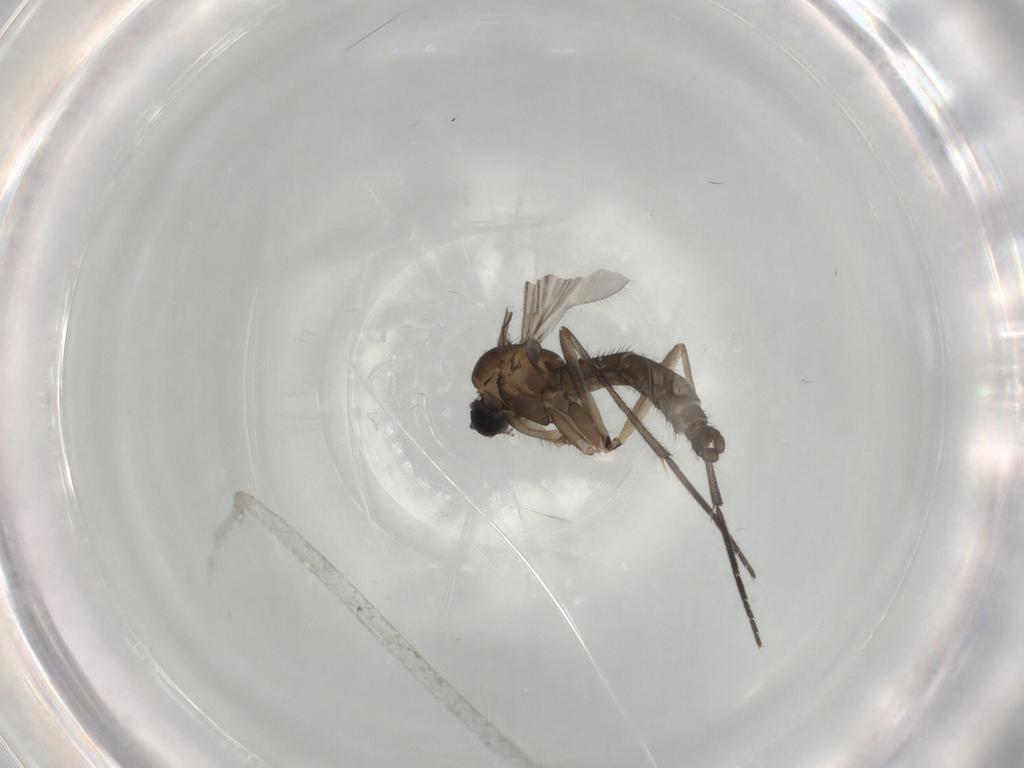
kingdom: Animalia
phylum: Arthropoda
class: Insecta
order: Diptera
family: Sciaridae
